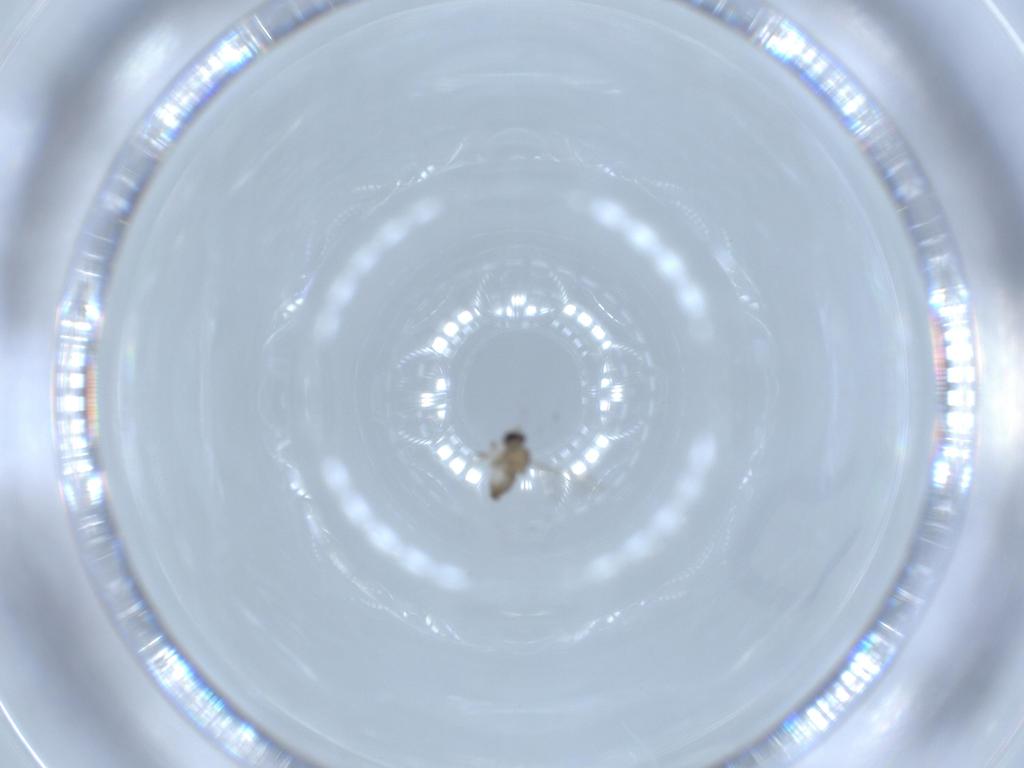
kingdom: Animalia
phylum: Arthropoda
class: Insecta
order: Diptera
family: Cecidomyiidae
